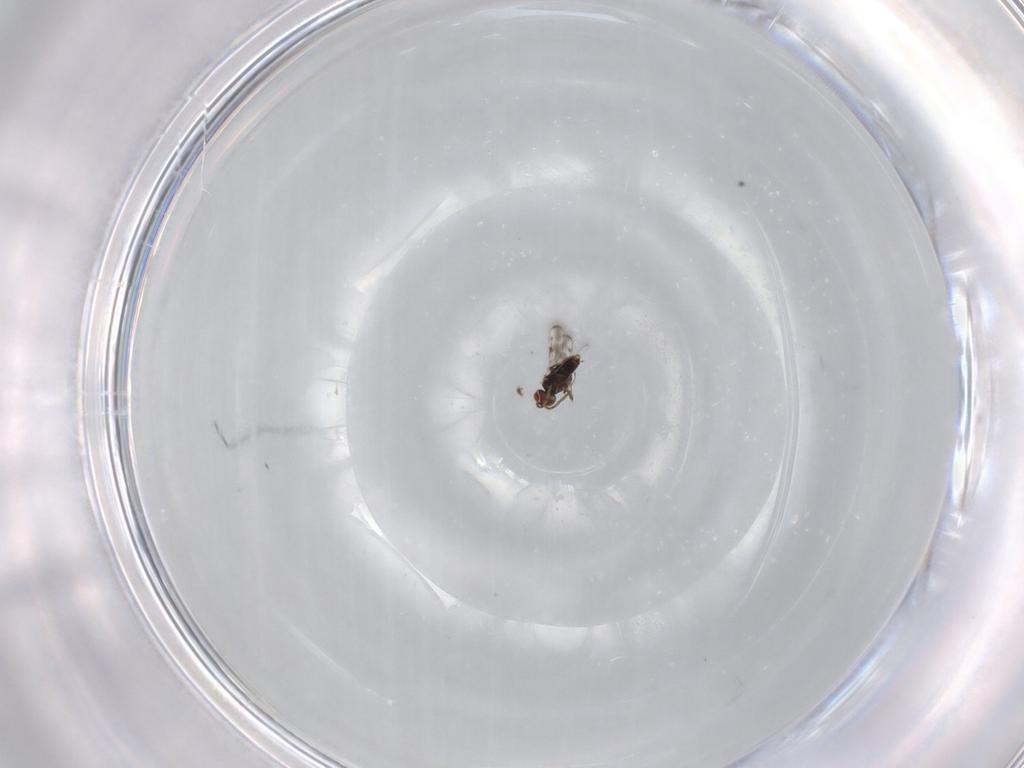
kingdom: Animalia
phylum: Arthropoda
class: Insecta
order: Hymenoptera
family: Azotidae
